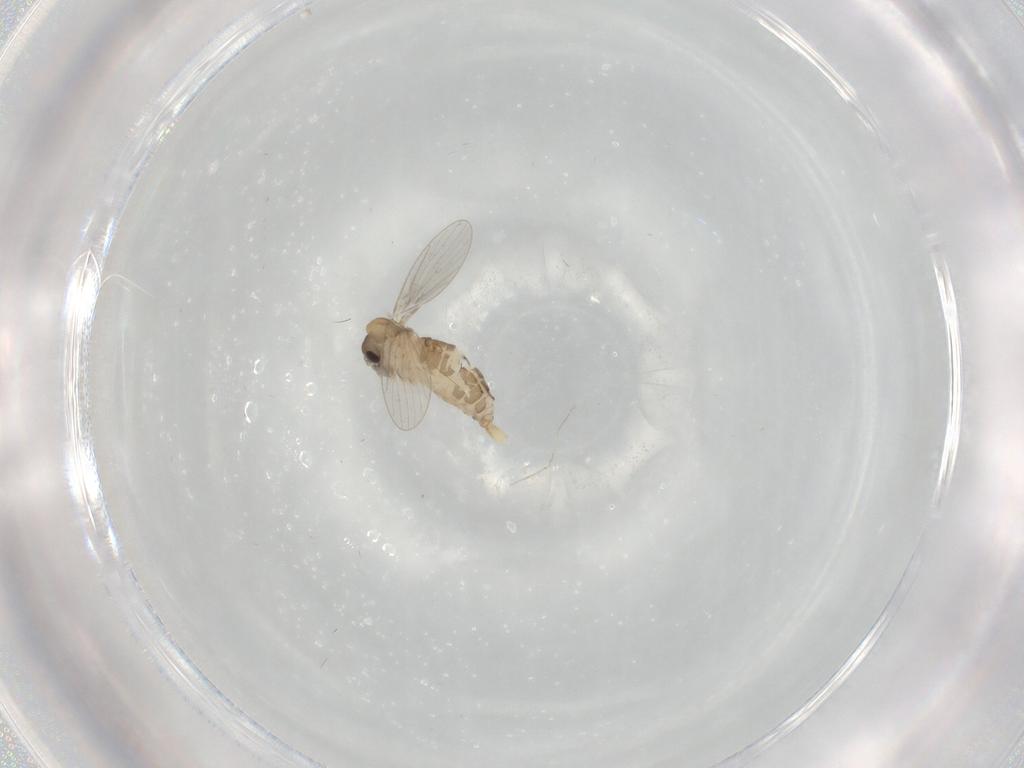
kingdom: Animalia
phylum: Arthropoda
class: Insecta
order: Diptera
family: Psychodidae
